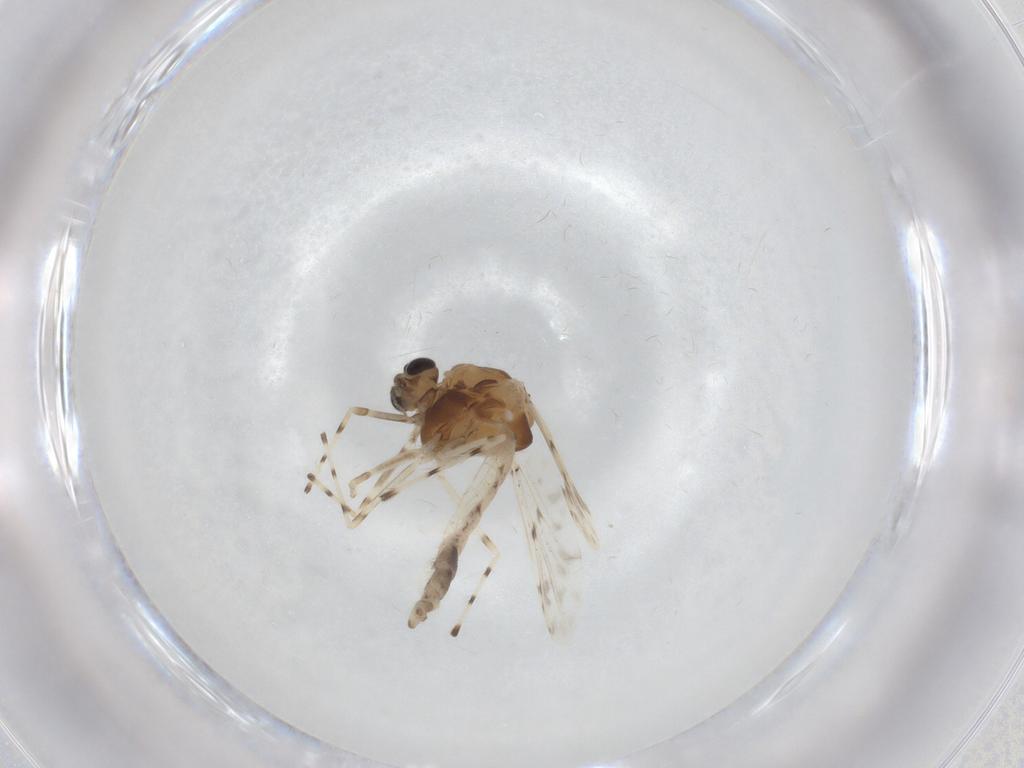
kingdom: Animalia
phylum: Arthropoda
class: Insecta
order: Diptera
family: Chironomidae
